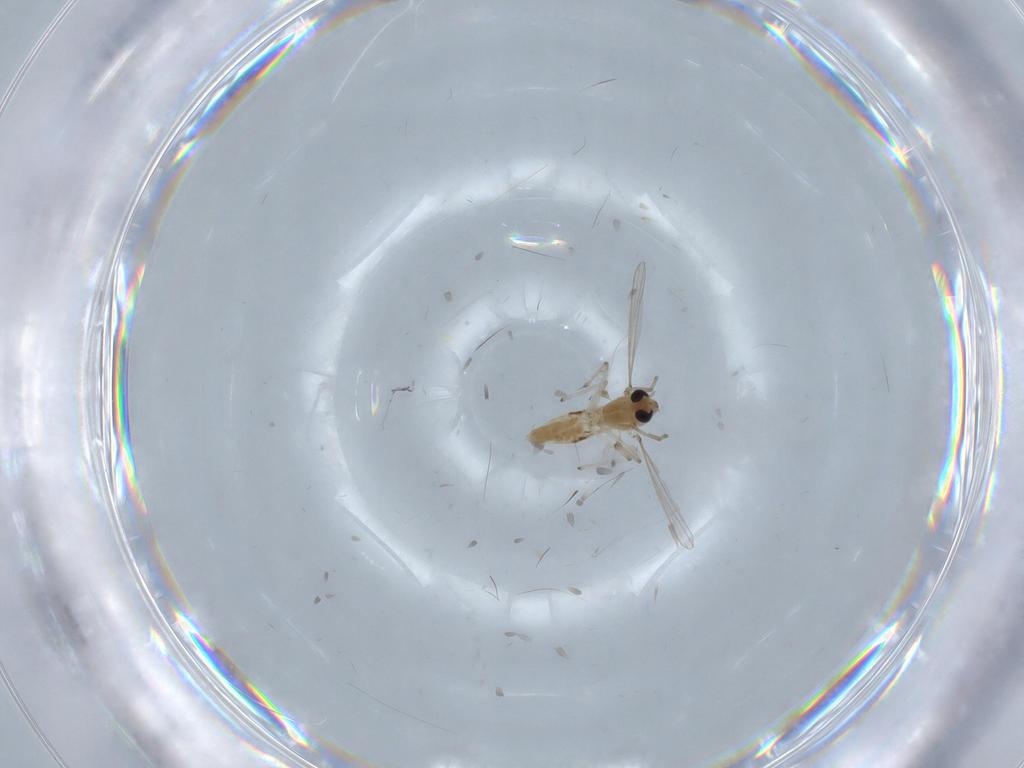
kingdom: Animalia
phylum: Arthropoda
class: Insecta
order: Diptera
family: Chironomidae
